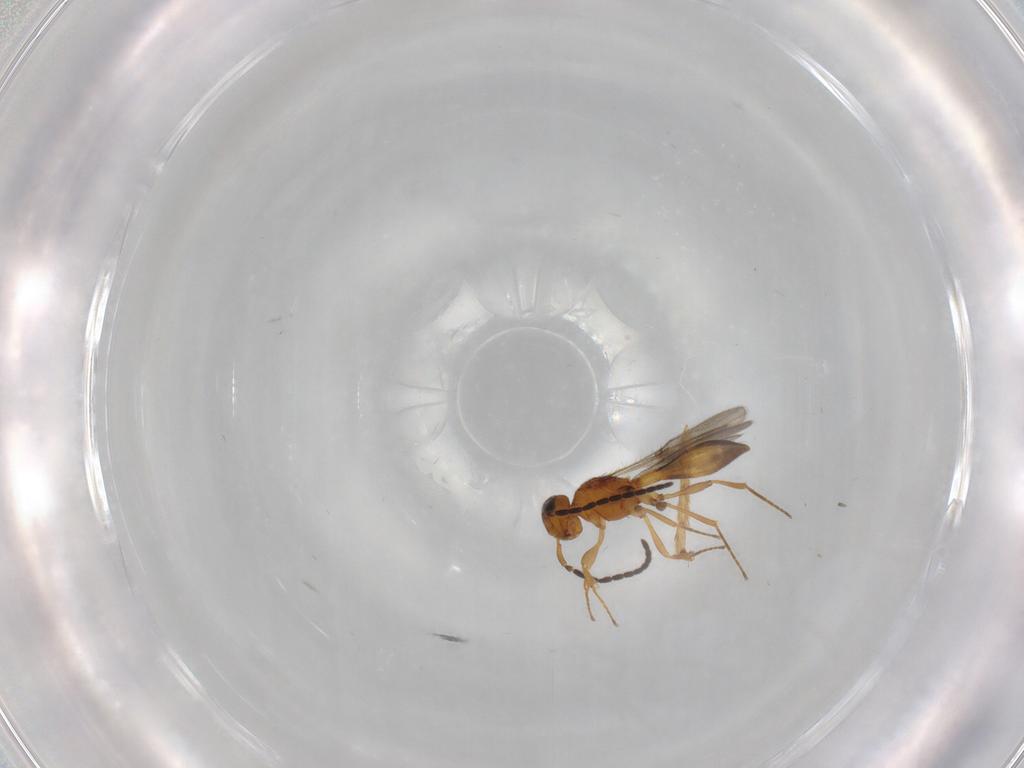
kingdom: Animalia
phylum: Arthropoda
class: Insecta
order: Hymenoptera
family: Scelionidae
